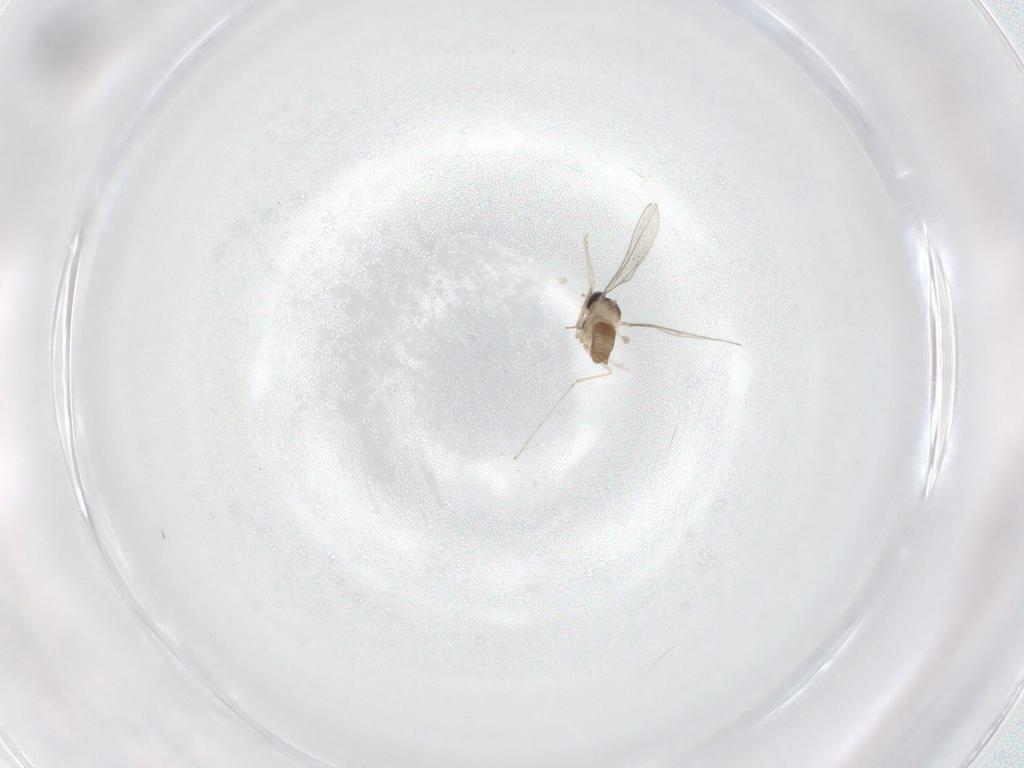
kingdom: Animalia
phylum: Arthropoda
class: Insecta
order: Diptera
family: Cecidomyiidae
